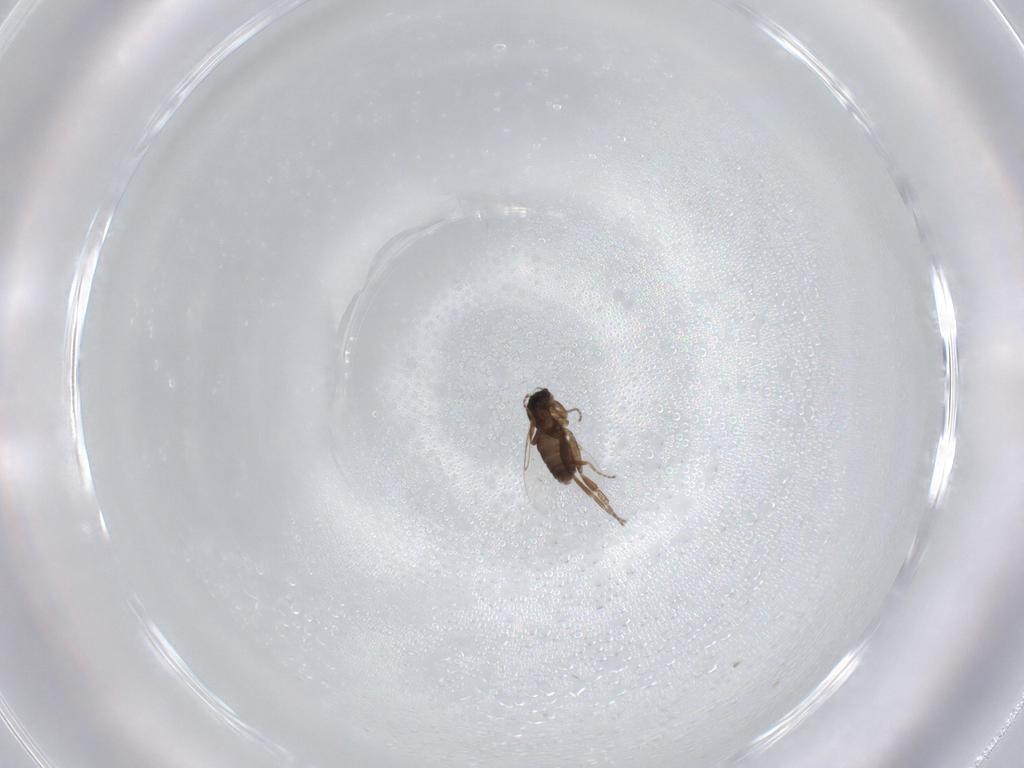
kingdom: Animalia
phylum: Arthropoda
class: Insecta
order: Diptera
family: Phoridae
